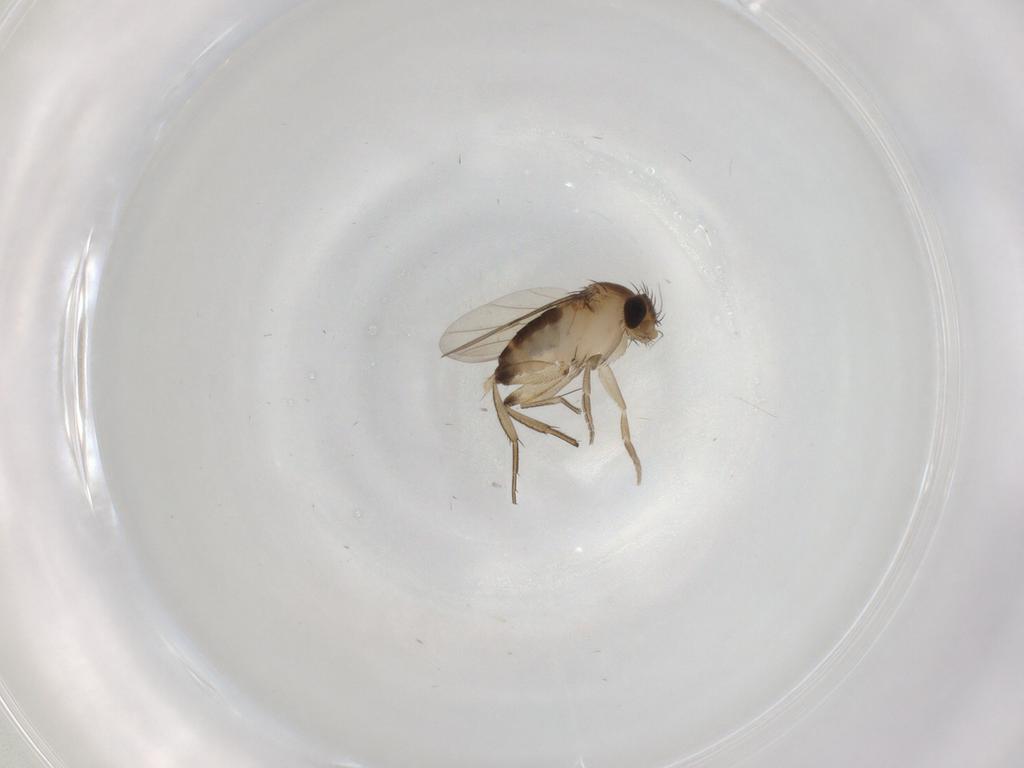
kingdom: Animalia
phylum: Arthropoda
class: Insecta
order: Diptera
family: Phoridae
